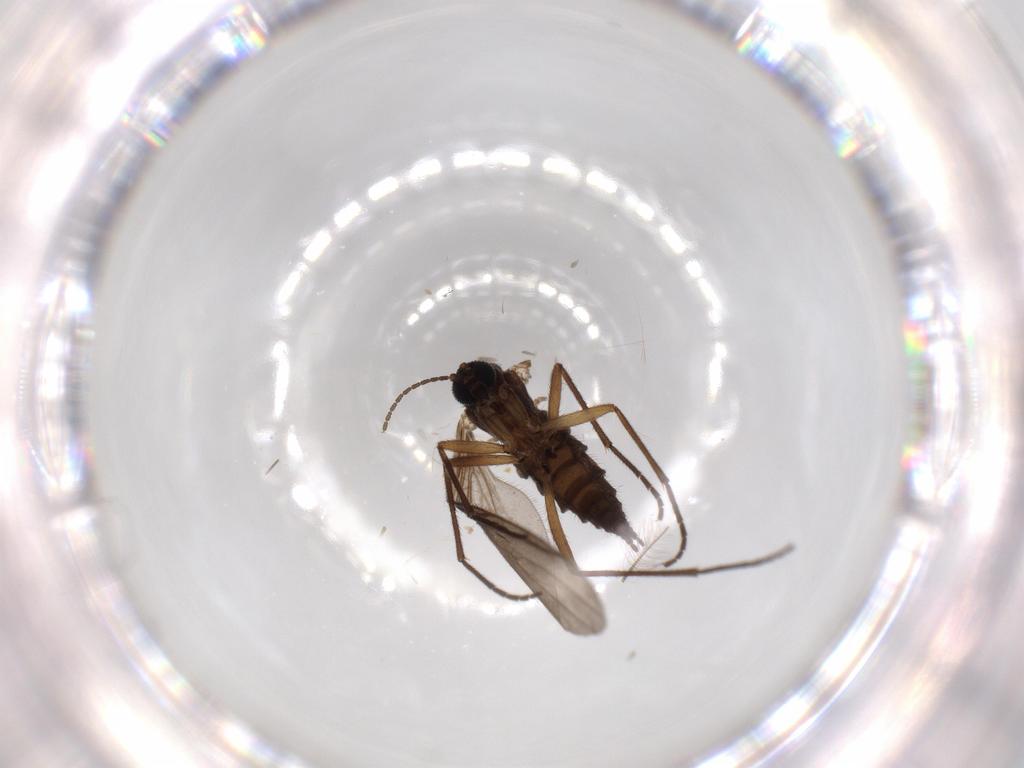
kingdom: Animalia
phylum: Arthropoda
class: Insecta
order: Diptera
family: Sciaridae
